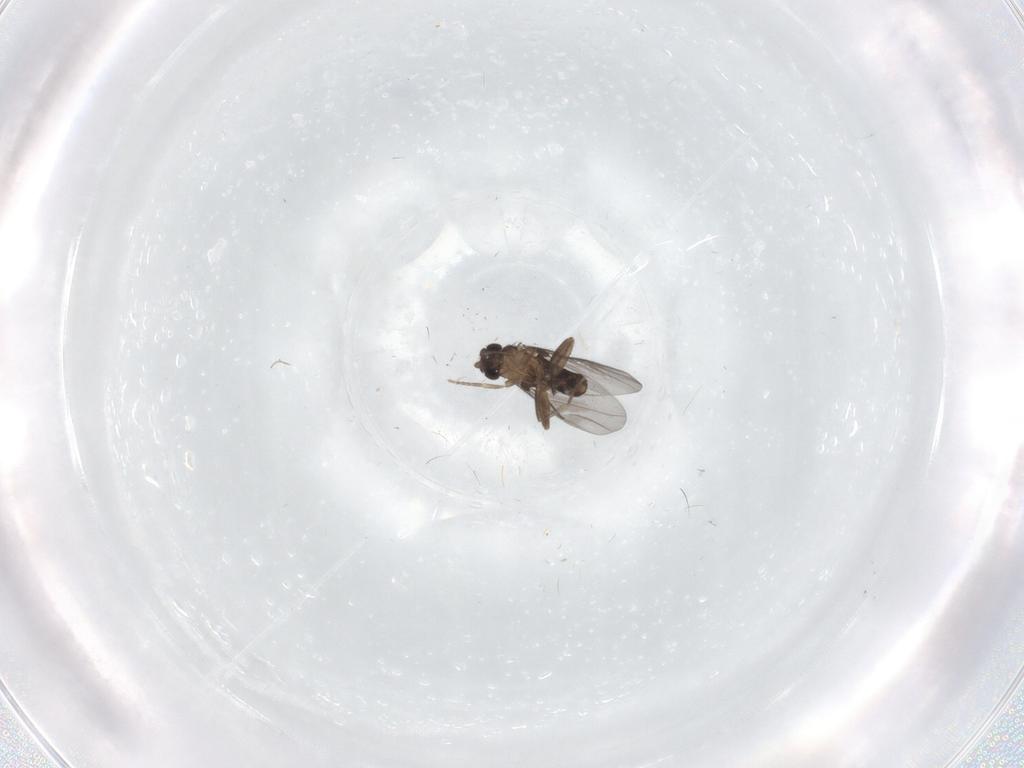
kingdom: Animalia
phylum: Arthropoda
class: Insecta
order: Diptera
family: Chironomidae
